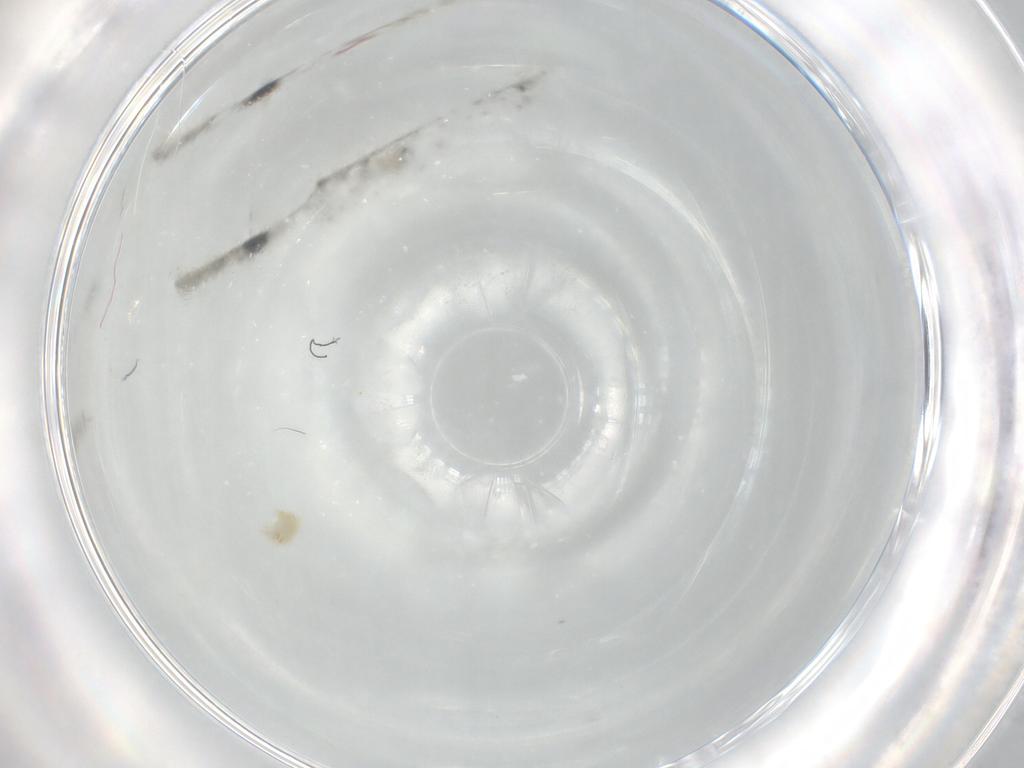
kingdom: Animalia
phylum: Arthropoda
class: Arachnida
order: Trombidiformes
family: Eupodidae
